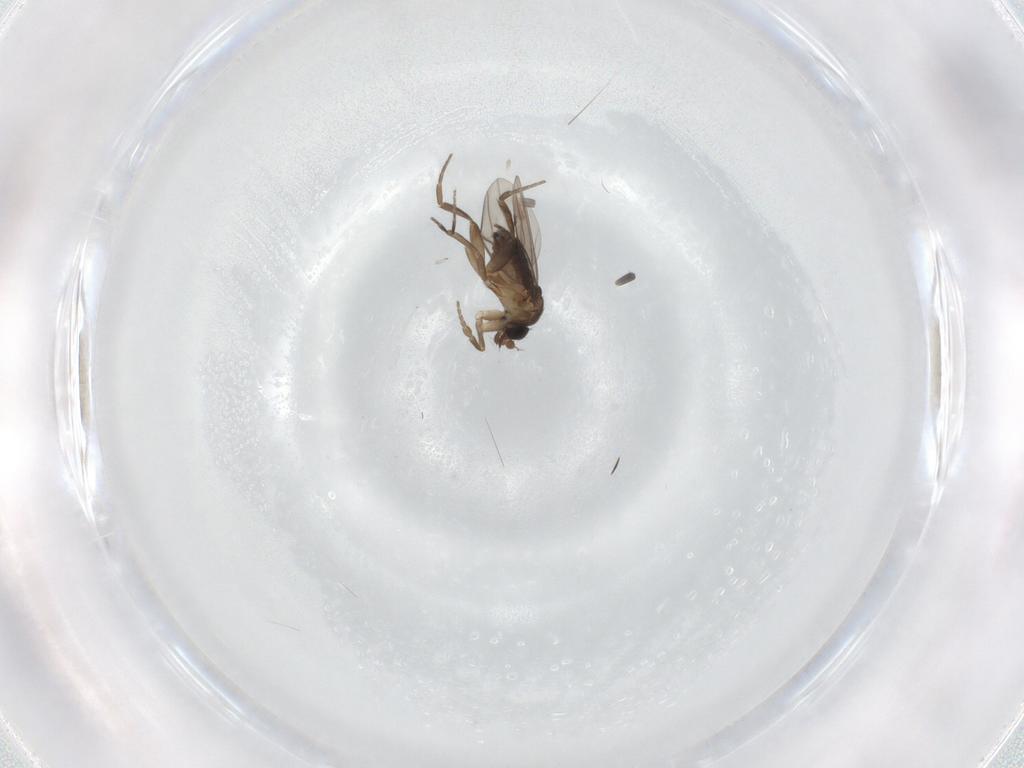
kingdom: Animalia
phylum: Arthropoda
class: Insecta
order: Diptera
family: Phoridae
